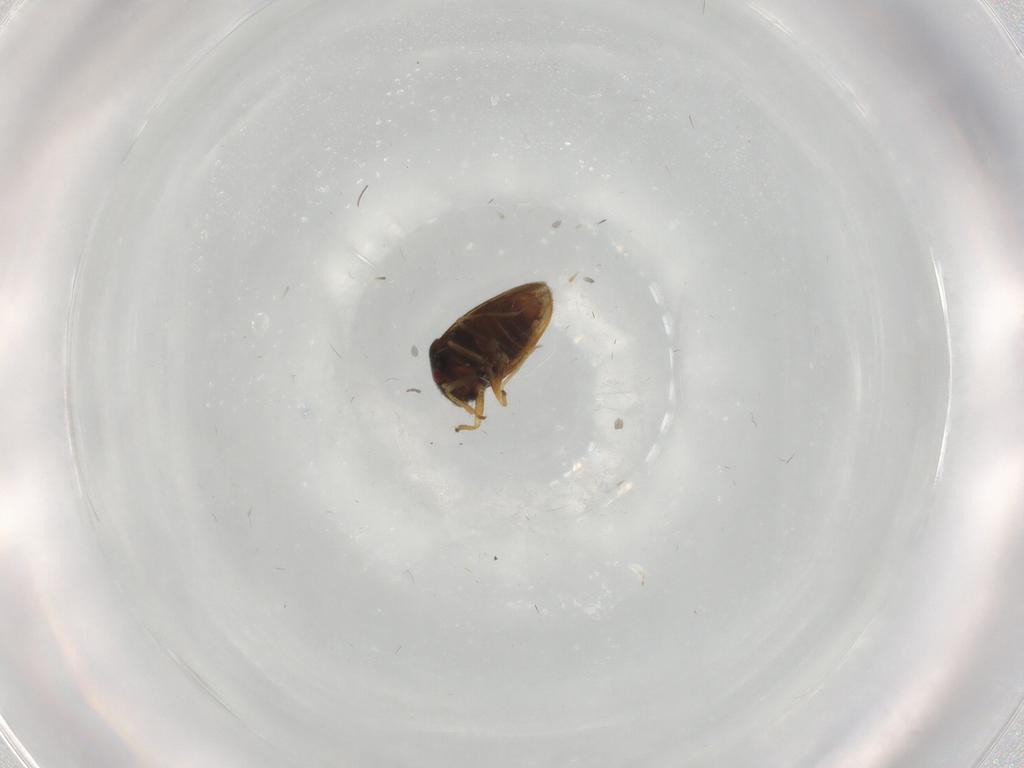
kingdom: Animalia
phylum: Arthropoda
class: Insecta
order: Hemiptera
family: Schizopteridae
